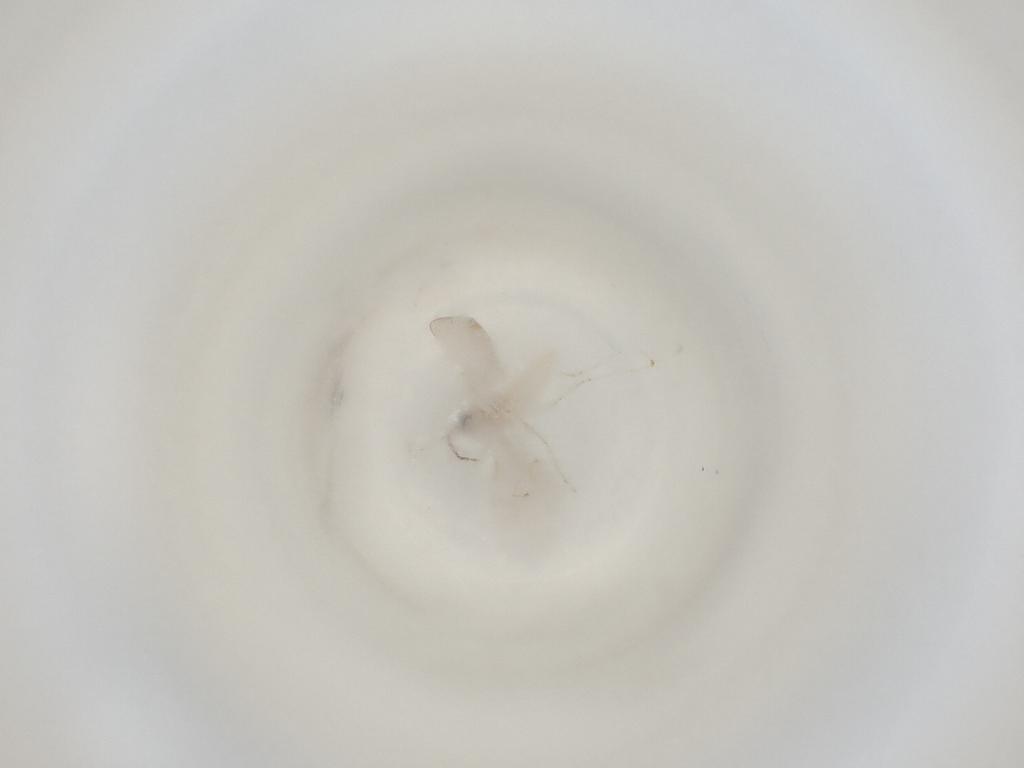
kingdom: Animalia
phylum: Arthropoda
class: Insecta
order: Diptera
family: Cecidomyiidae
